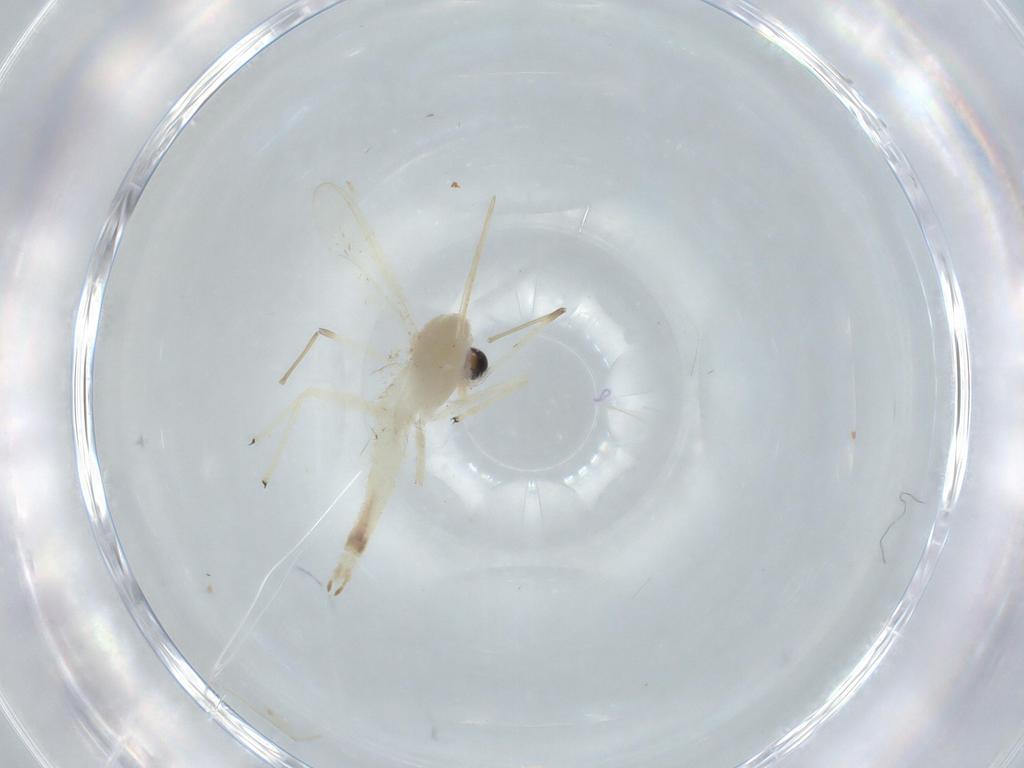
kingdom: Animalia
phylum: Arthropoda
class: Insecta
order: Diptera
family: Chironomidae
